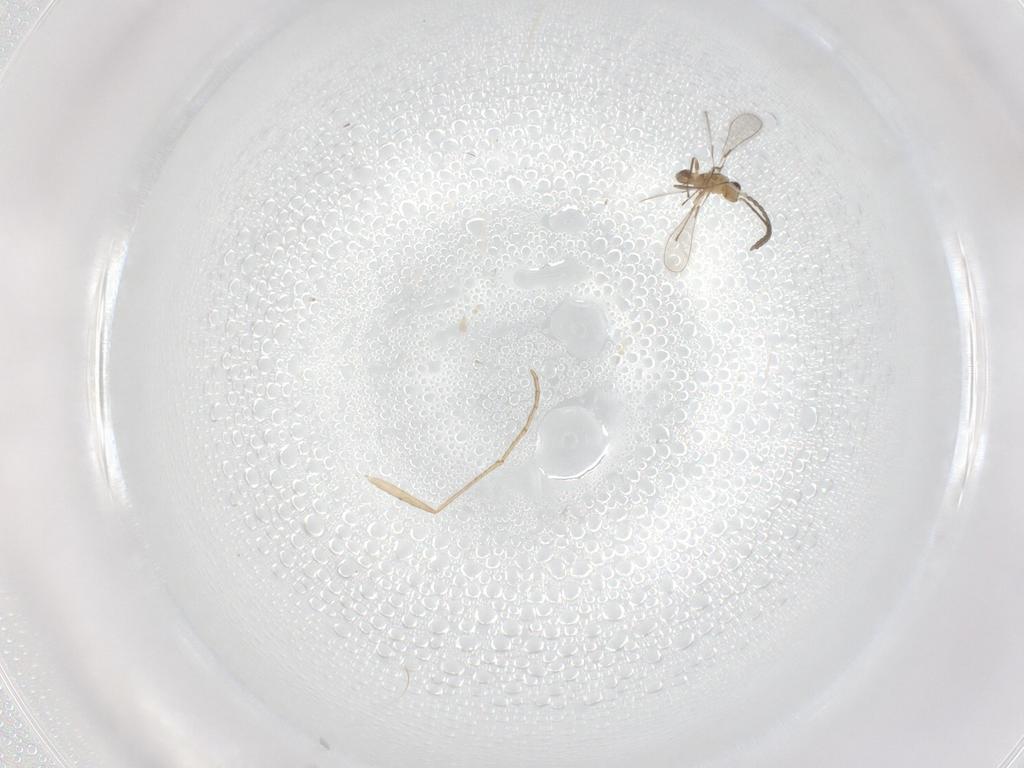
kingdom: Animalia
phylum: Arthropoda
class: Insecta
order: Hymenoptera
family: Mymaridae
